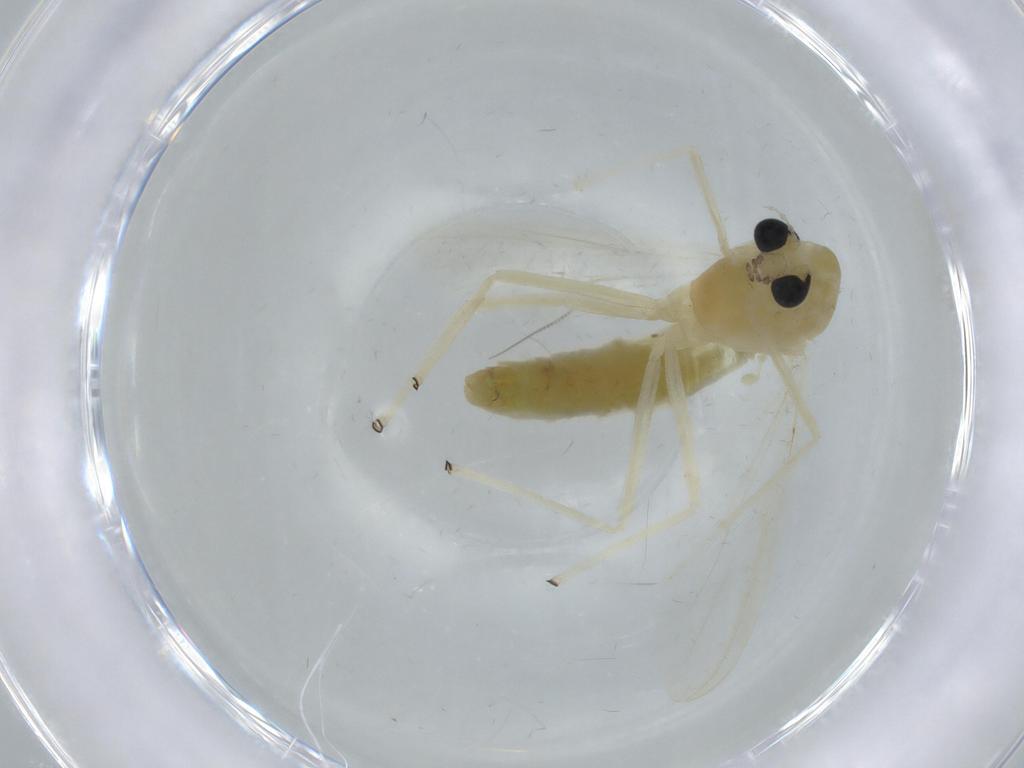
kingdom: Animalia
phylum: Arthropoda
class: Insecta
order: Diptera
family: Chironomidae
